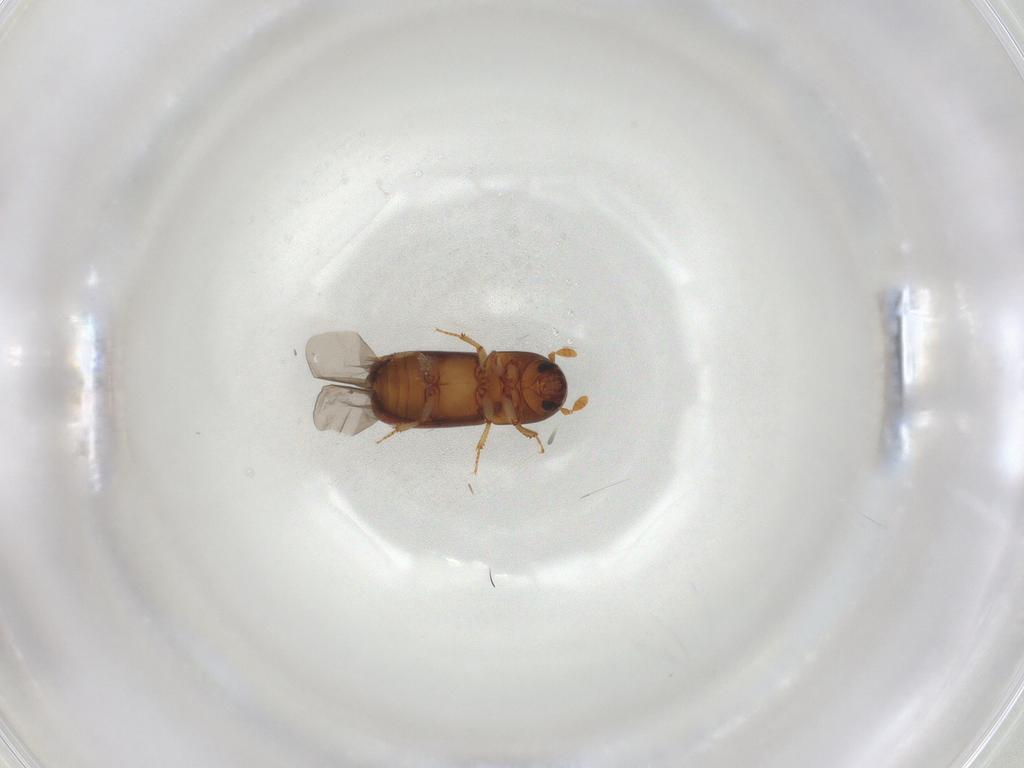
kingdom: Animalia
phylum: Arthropoda
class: Insecta
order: Coleoptera
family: Curculionidae
